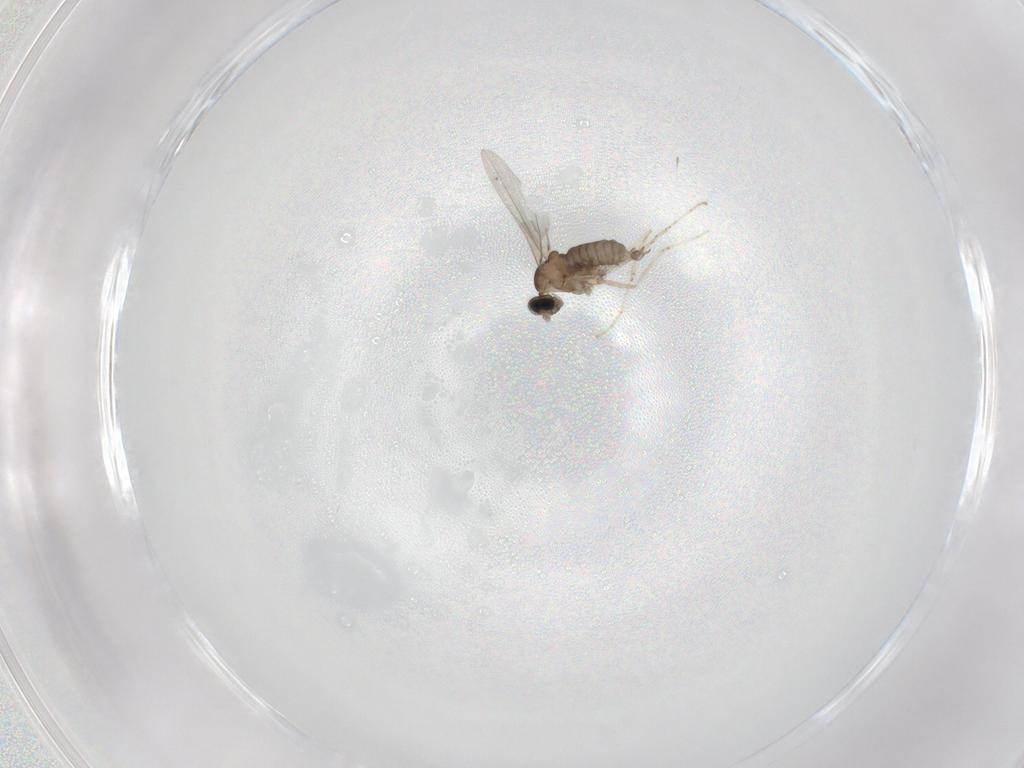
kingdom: Animalia
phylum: Arthropoda
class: Insecta
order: Diptera
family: Cecidomyiidae
